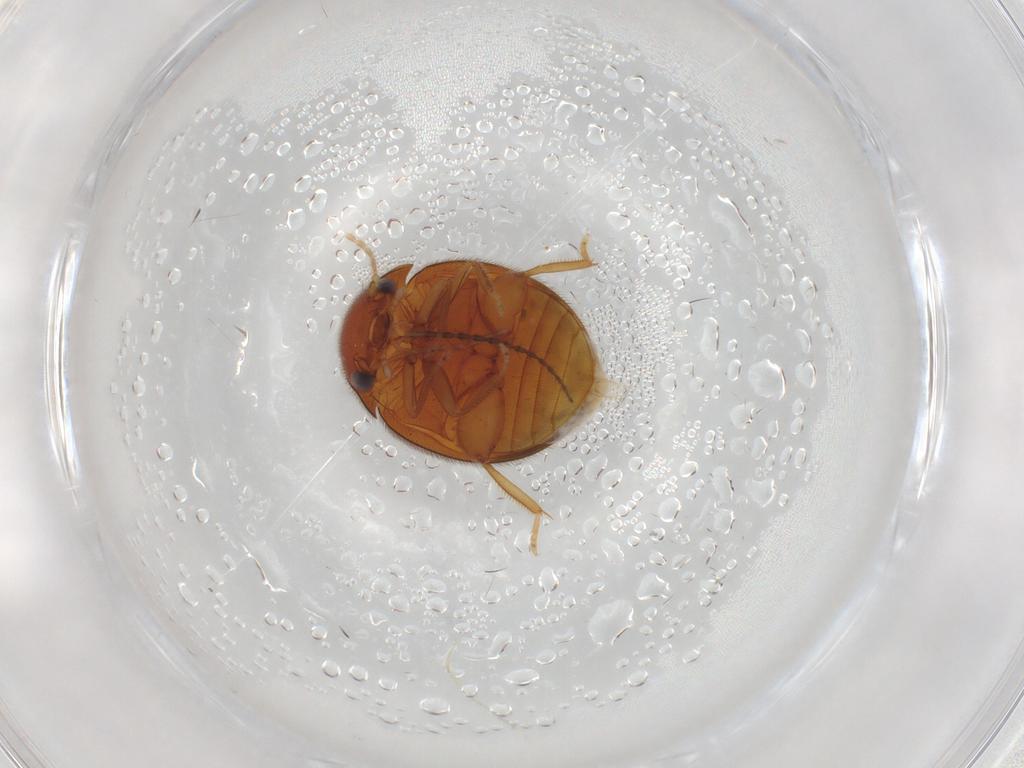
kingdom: Animalia
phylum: Arthropoda
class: Insecta
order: Coleoptera
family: Scirtidae
